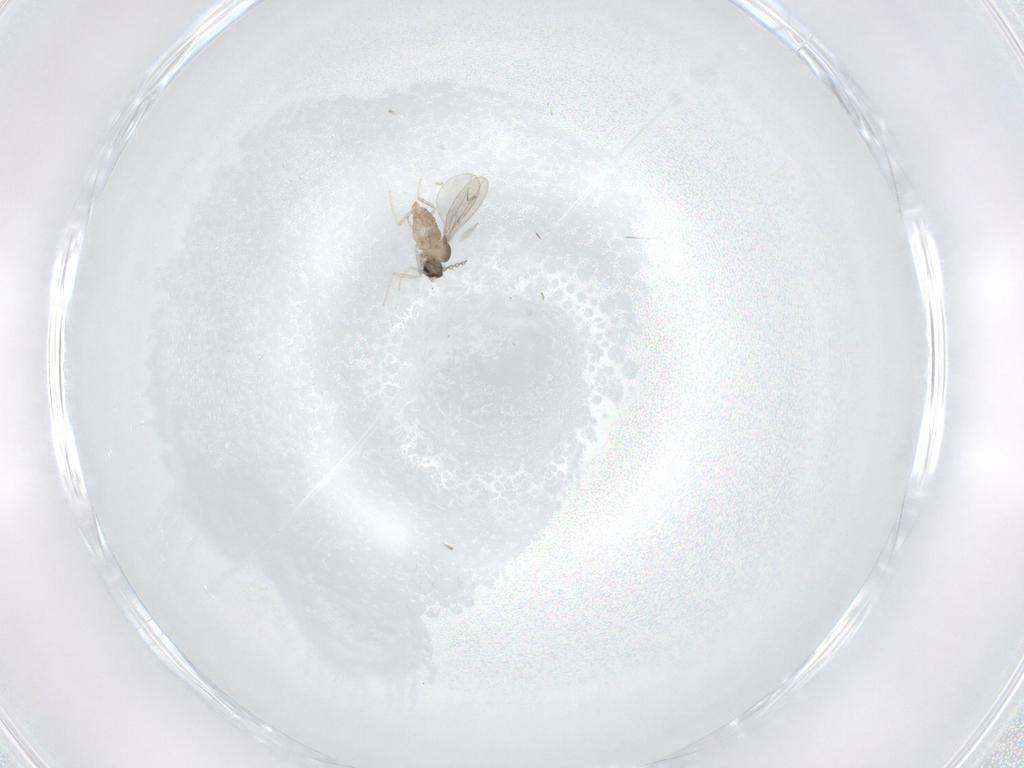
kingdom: Animalia
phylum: Arthropoda
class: Insecta
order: Diptera
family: Cecidomyiidae
